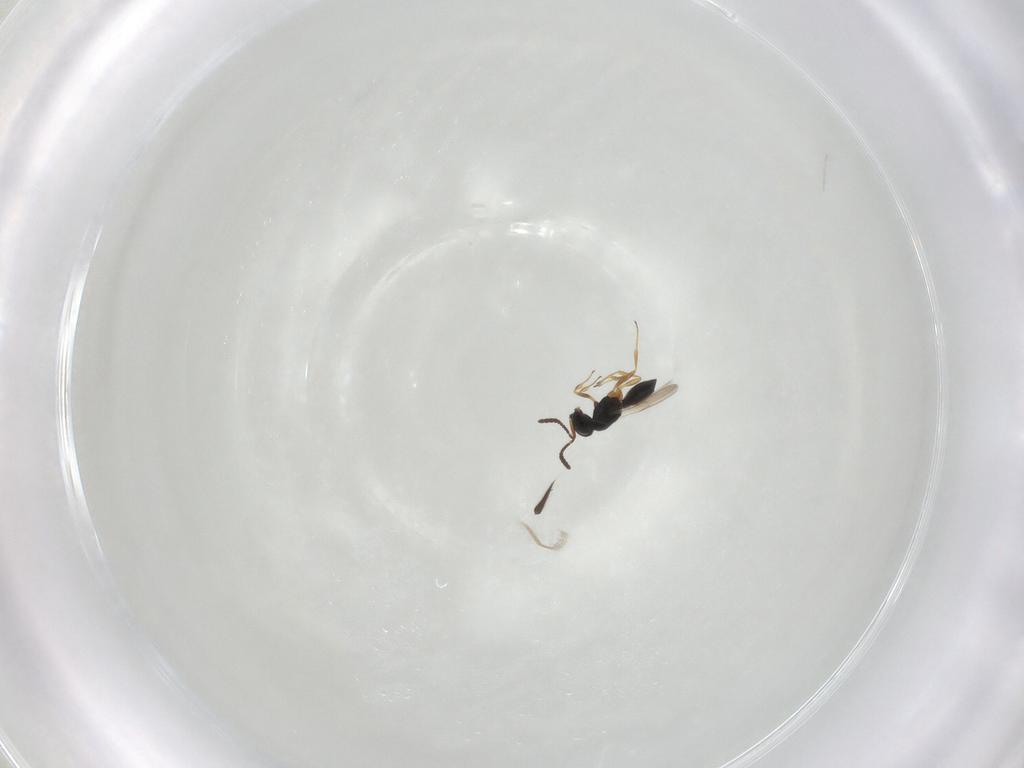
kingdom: Animalia
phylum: Arthropoda
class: Insecta
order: Hymenoptera
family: Scelionidae
